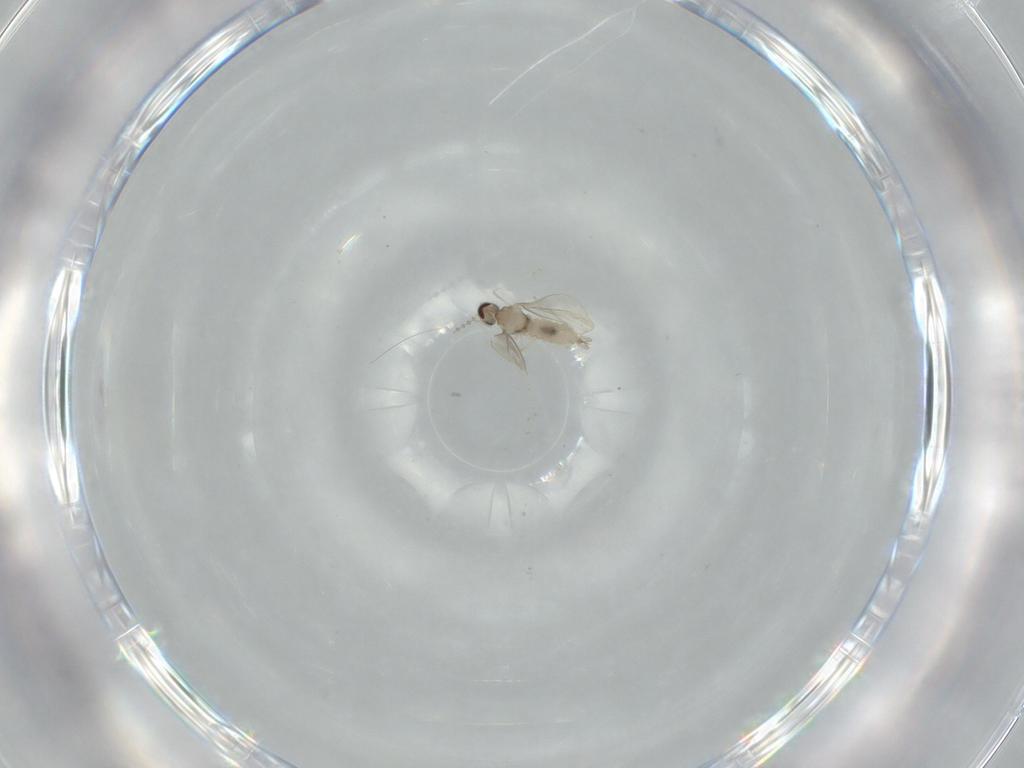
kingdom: Animalia
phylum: Arthropoda
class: Insecta
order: Diptera
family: Cecidomyiidae
